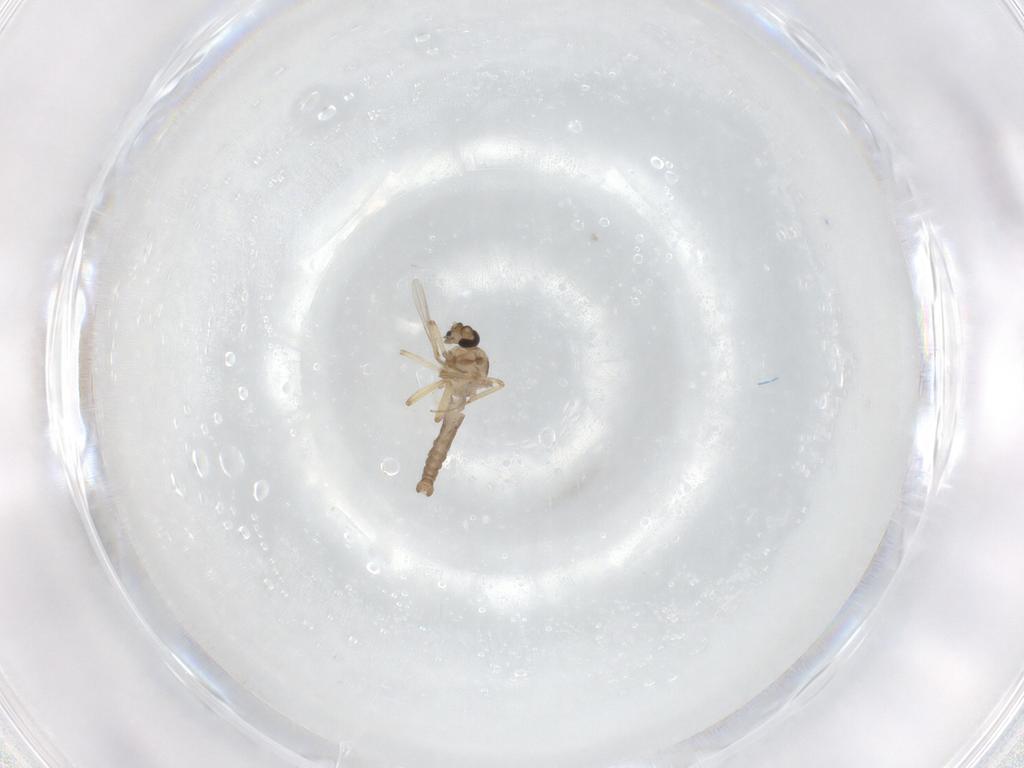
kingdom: Animalia
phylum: Arthropoda
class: Insecta
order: Diptera
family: Ceratopogonidae
